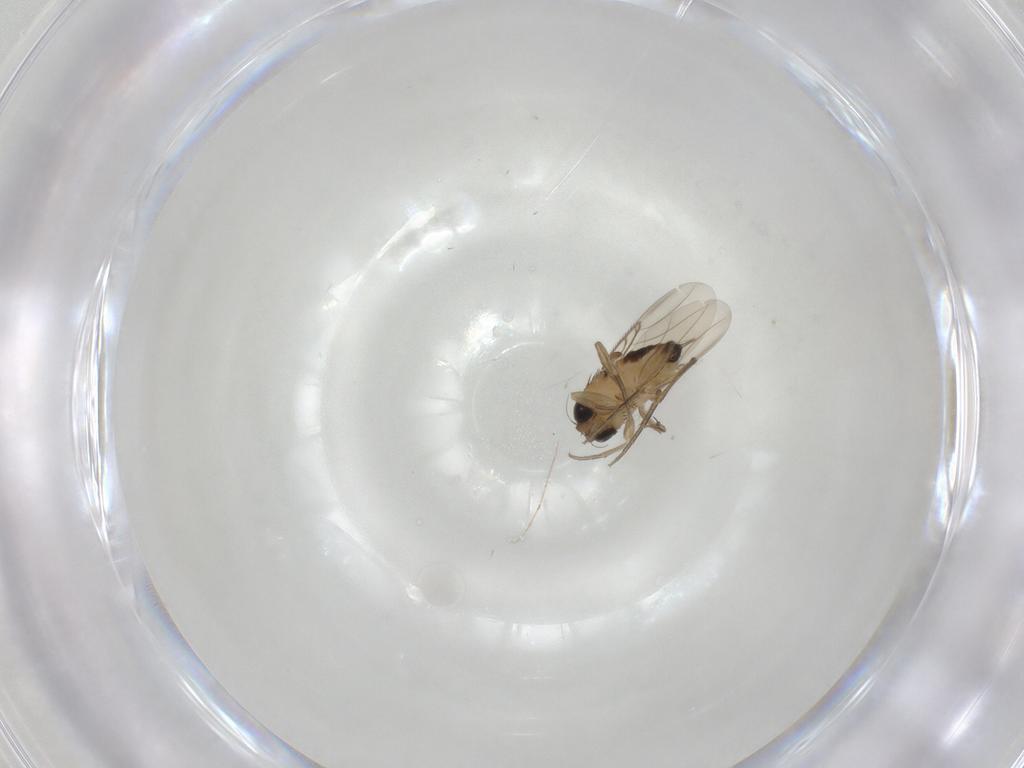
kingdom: Animalia
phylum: Arthropoda
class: Insecta
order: Diptera
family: Phoridae
